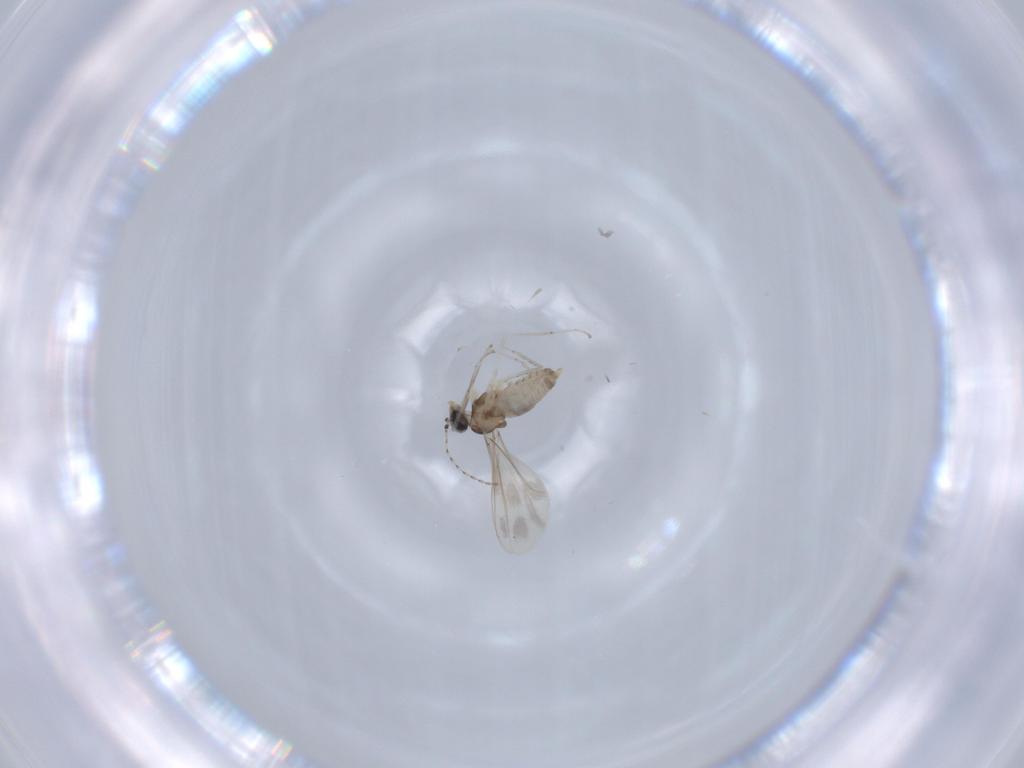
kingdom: Animalia
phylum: Arthropoda
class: Insecta
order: Diptera
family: Cecidomyiidae
